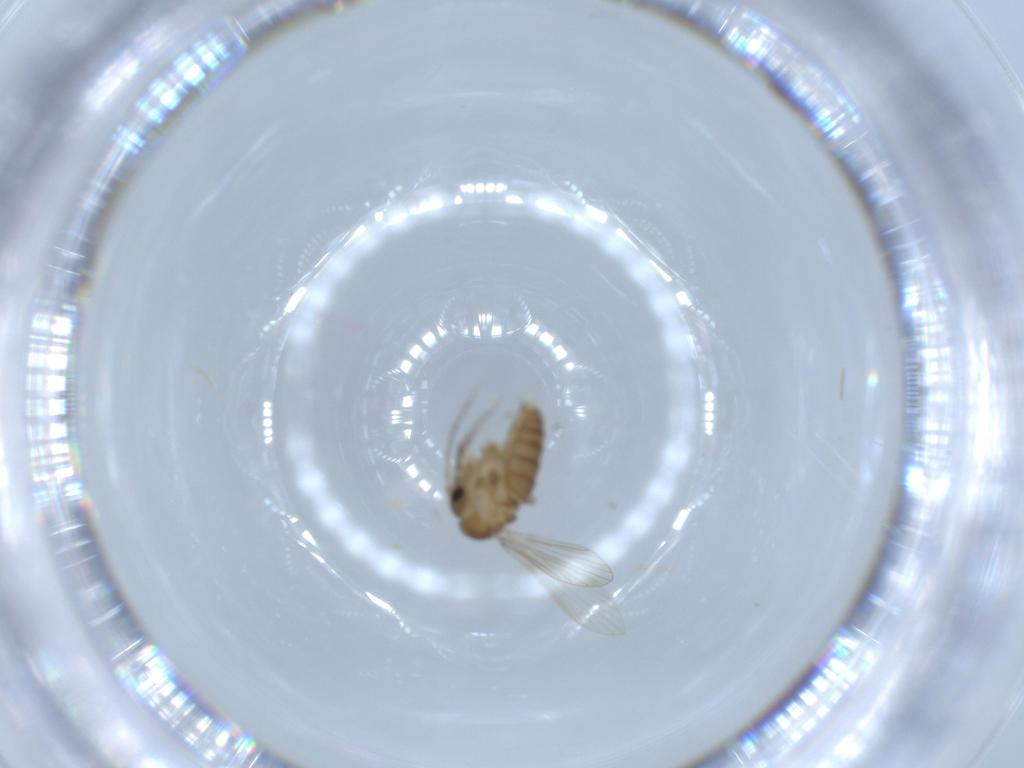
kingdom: Animalia
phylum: Arthropoda
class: Insecta
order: Diptera
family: Psychodidae
